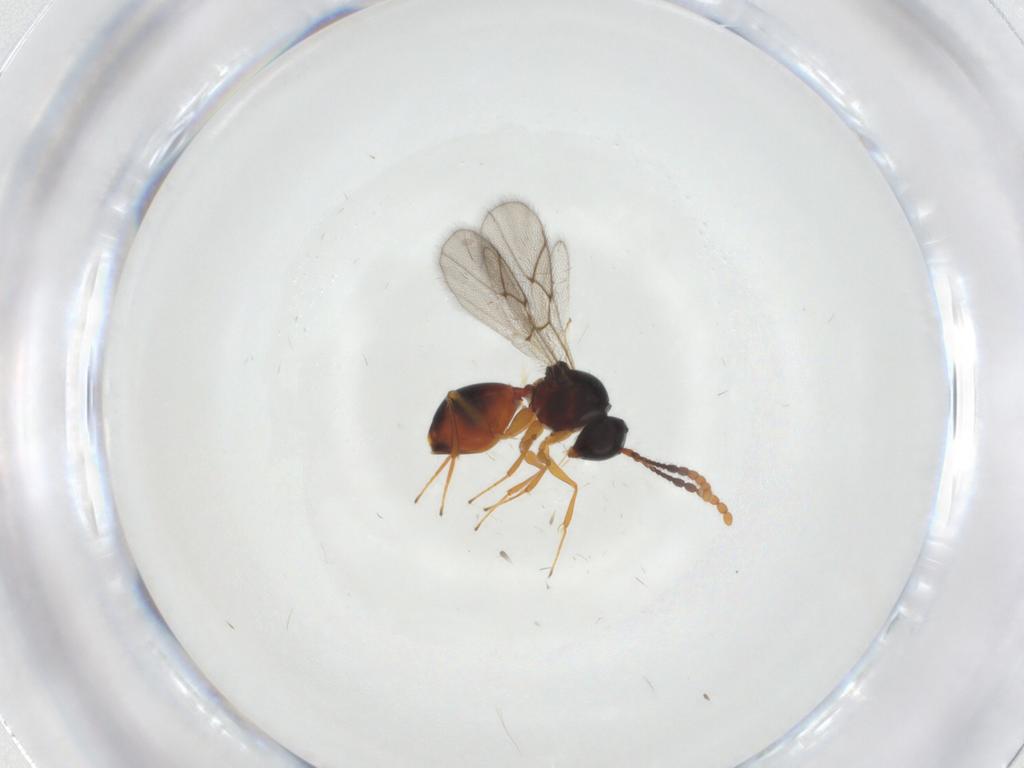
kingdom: Animalia
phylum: Arthropoda
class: Insecta
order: Hymenoptera
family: Figitidae
